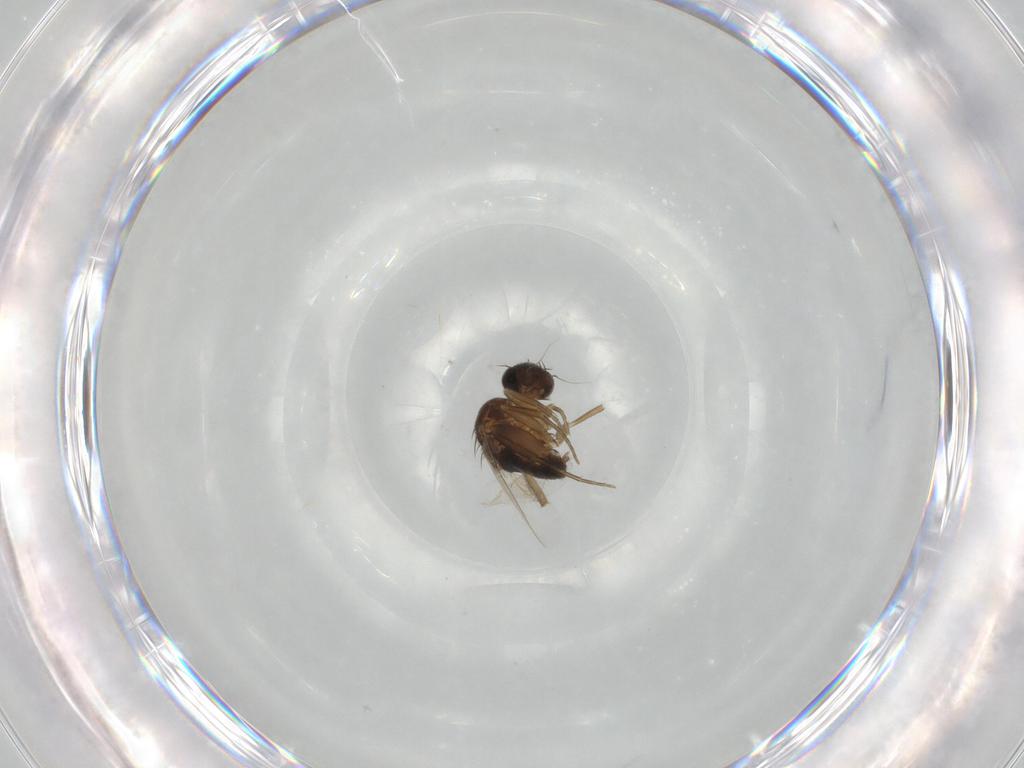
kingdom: Animalia
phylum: Arthropoda
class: Insecta
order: Diptera
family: Phoridae
